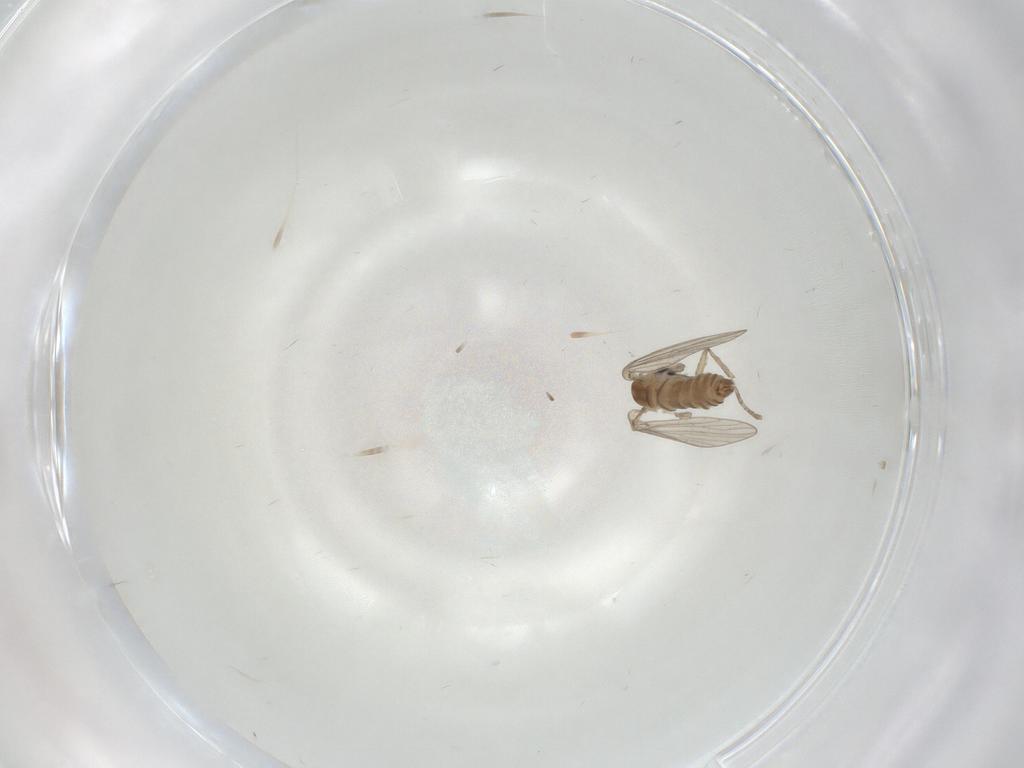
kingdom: Animalia
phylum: Arthropoda
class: Insecta
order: Diptera
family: Psychodidae
